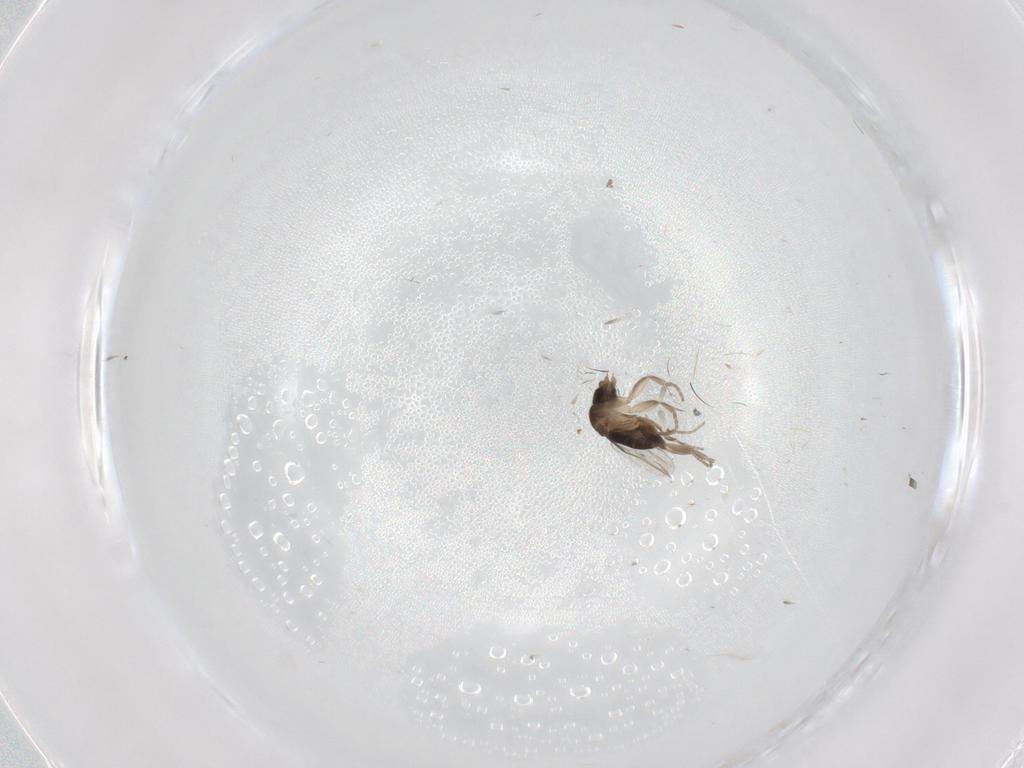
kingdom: Animalia
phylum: Arthropoda
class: Insecta
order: Diptera
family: Phoridae
